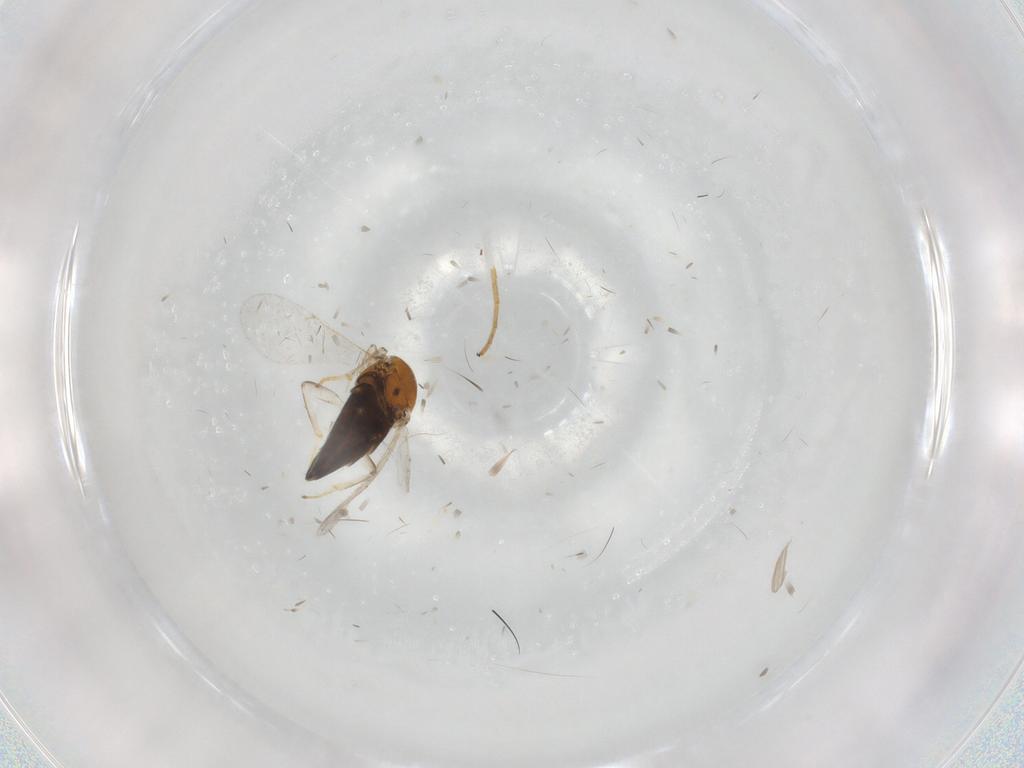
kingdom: Animalia
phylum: Arthropoda
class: Insecta
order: Hymenoptera
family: Encyrtidae
